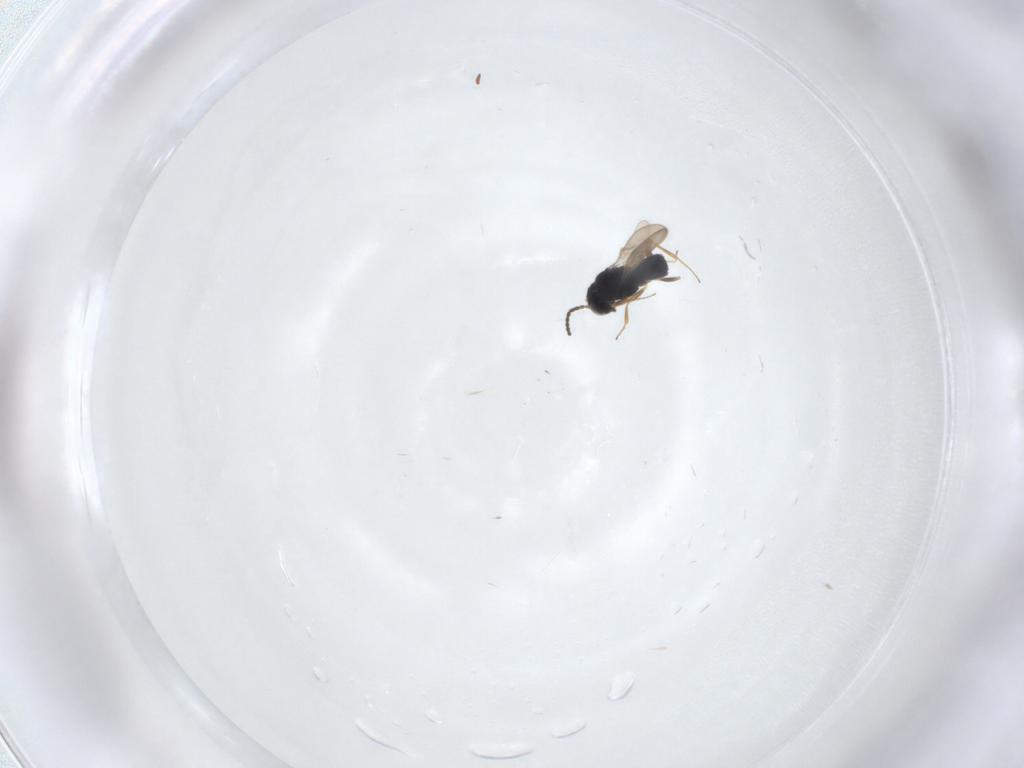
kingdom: Animalia
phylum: Arthropoda
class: Insecta
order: Hymenoptera
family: Scelionidae
